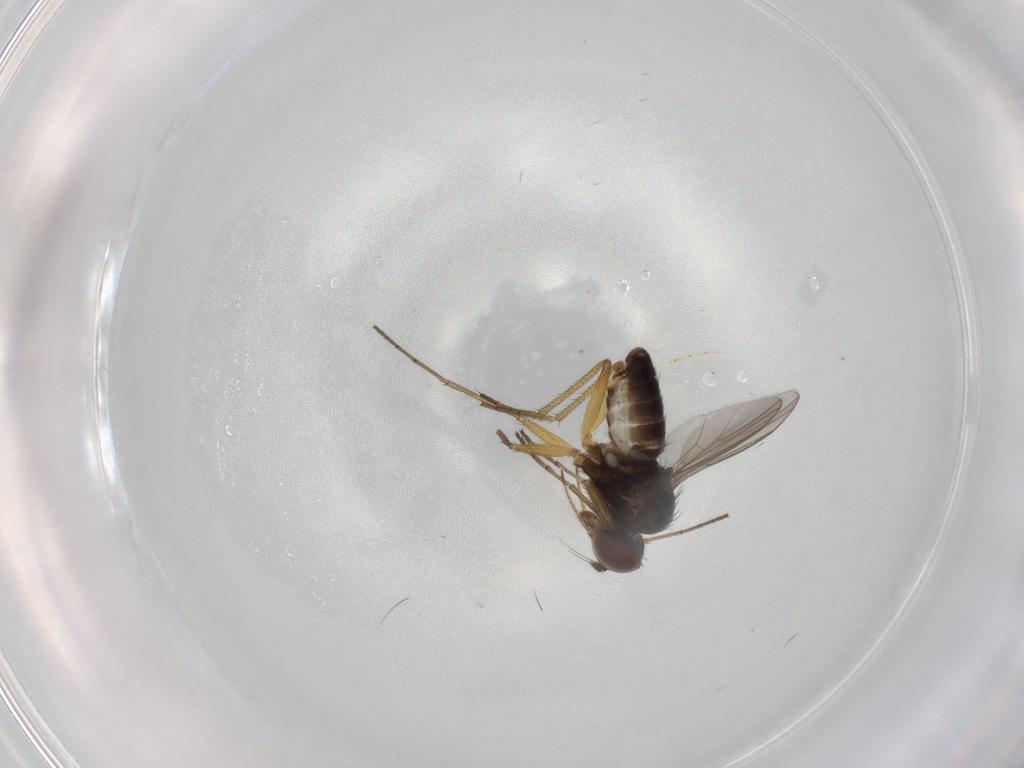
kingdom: Animalia
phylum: Arthropoda
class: Insecta
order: Diptera
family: Dolichopodidae
